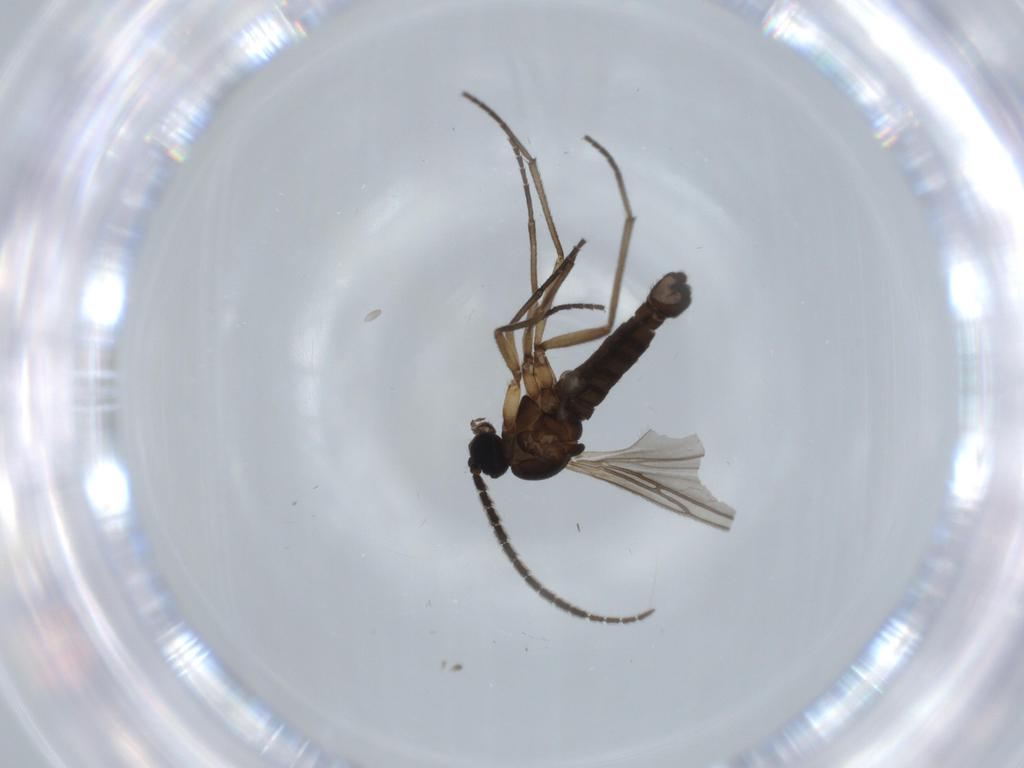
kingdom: Animalia
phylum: Arthropoda
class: Insecta
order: Diptera
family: Sciaridae
